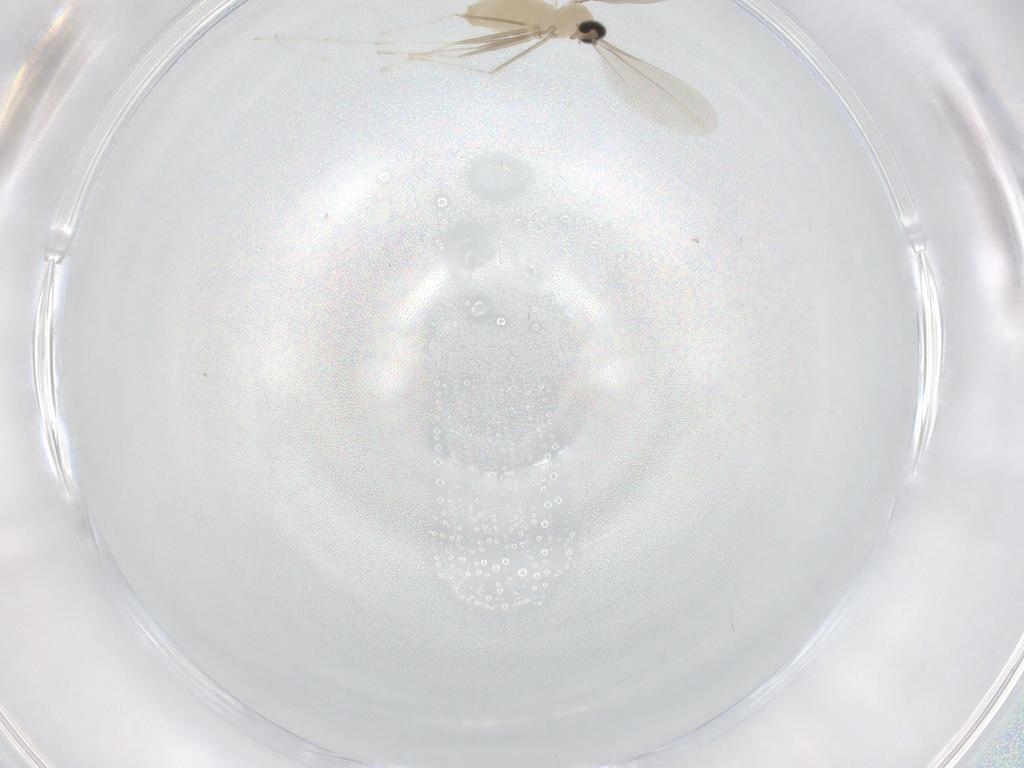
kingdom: Animalia
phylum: Arthropoda
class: Insecta
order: Diptera
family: Cecidomyiidae
